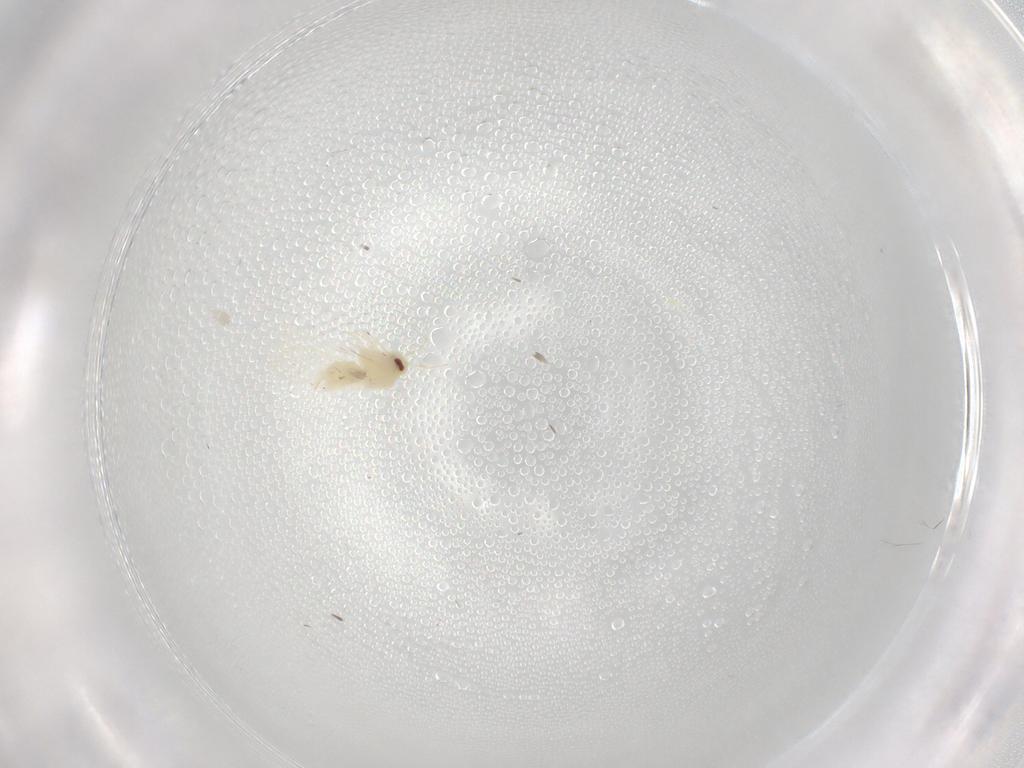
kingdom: Animalia
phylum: Arthropoda
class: Insecta
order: Hemiptera
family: Aleyrodidae
